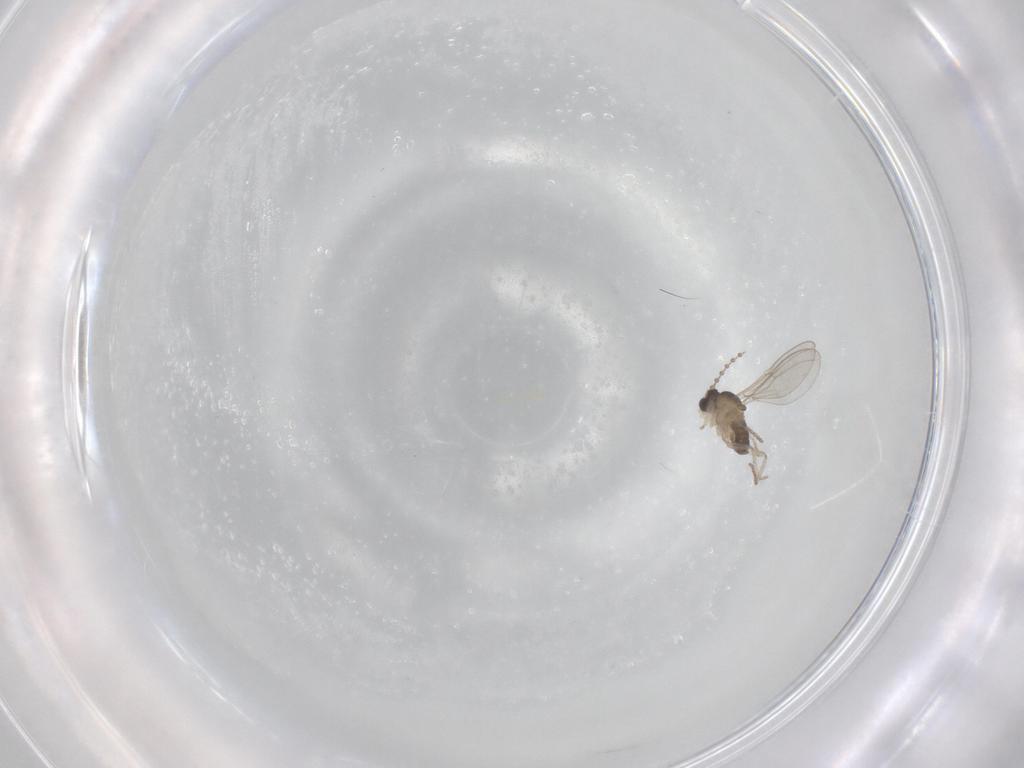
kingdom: Animalia
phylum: Arthropoda
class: Insecta
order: Diptera
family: Cecidomyiidae
